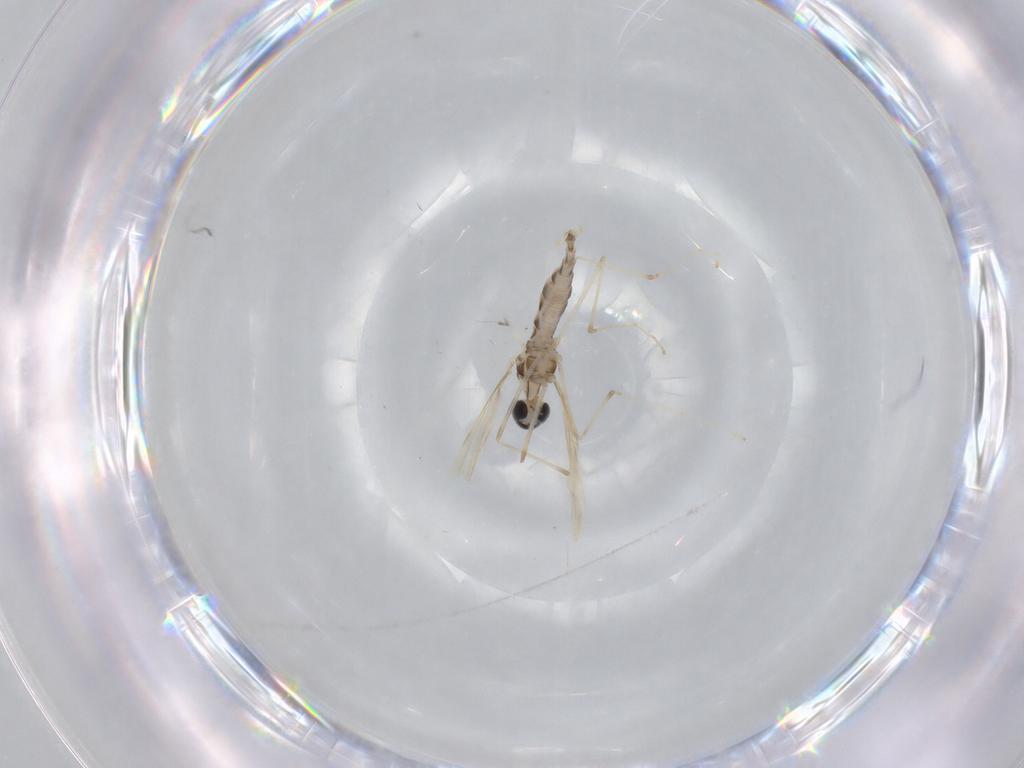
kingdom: Animalia
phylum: Arthropoda
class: Insecta
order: Diptera
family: Cecidomyiidae
